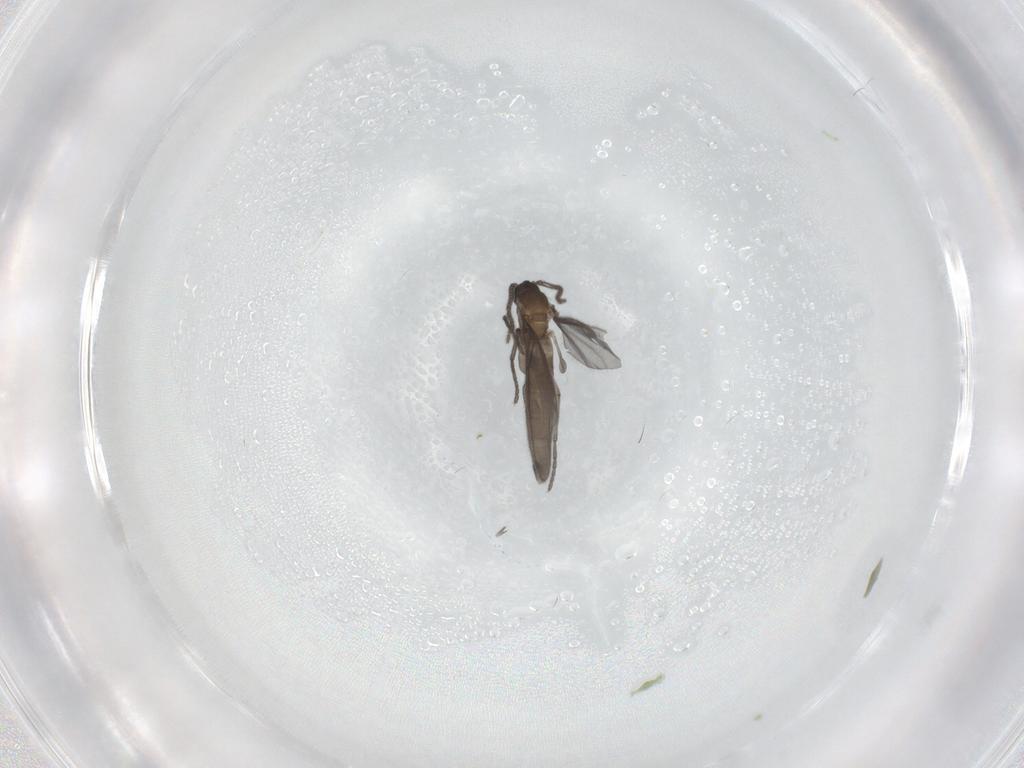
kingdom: Animalia
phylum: Arthropoda
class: Insecta
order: Diptera
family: Sciaridae
